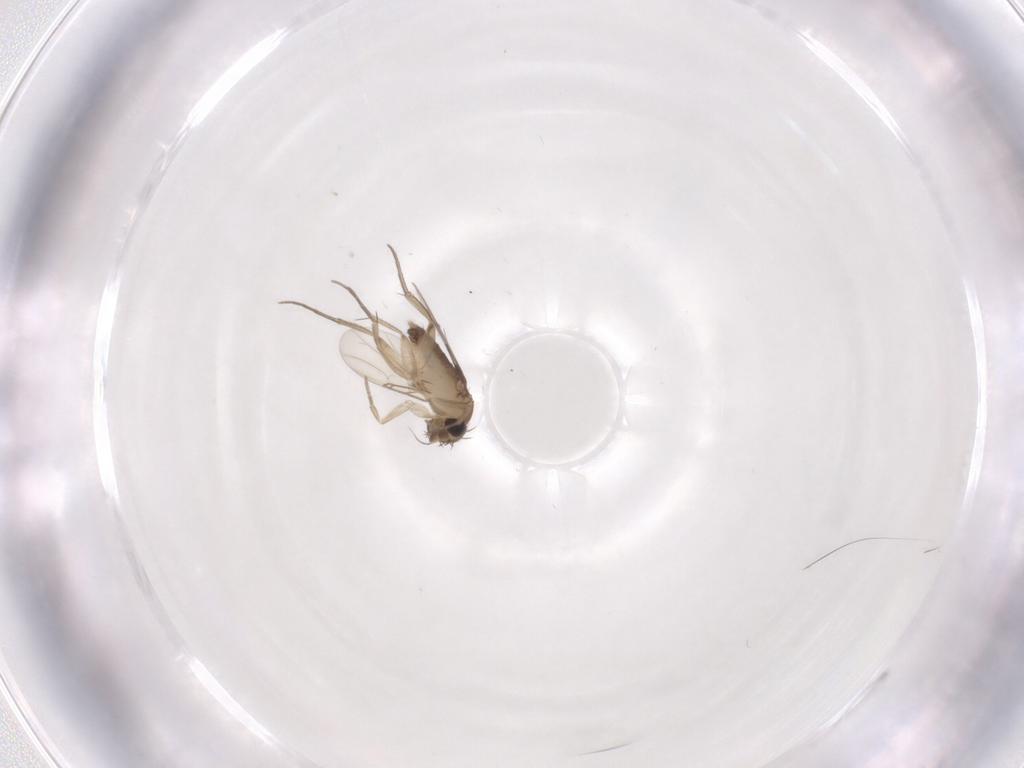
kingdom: Animalia
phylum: Arthropoda
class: Insecta
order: Diptera
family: Phoridae
